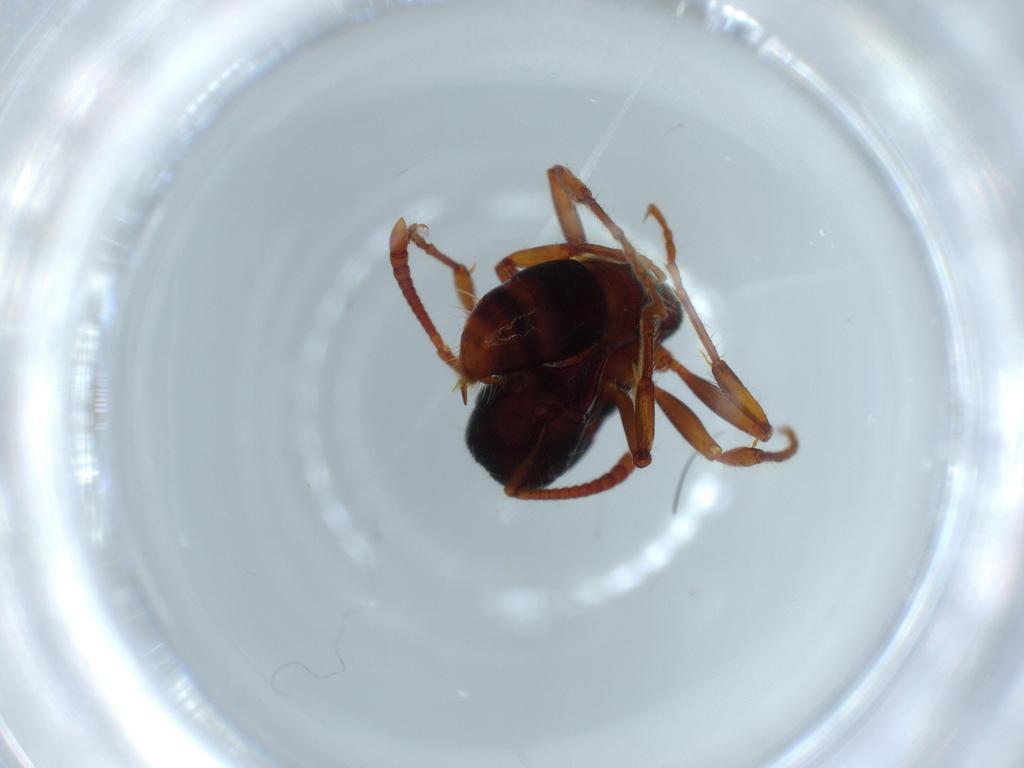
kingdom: Animalia
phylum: Arthropoda
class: Insecta
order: Hymenoptera
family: Formicidae
